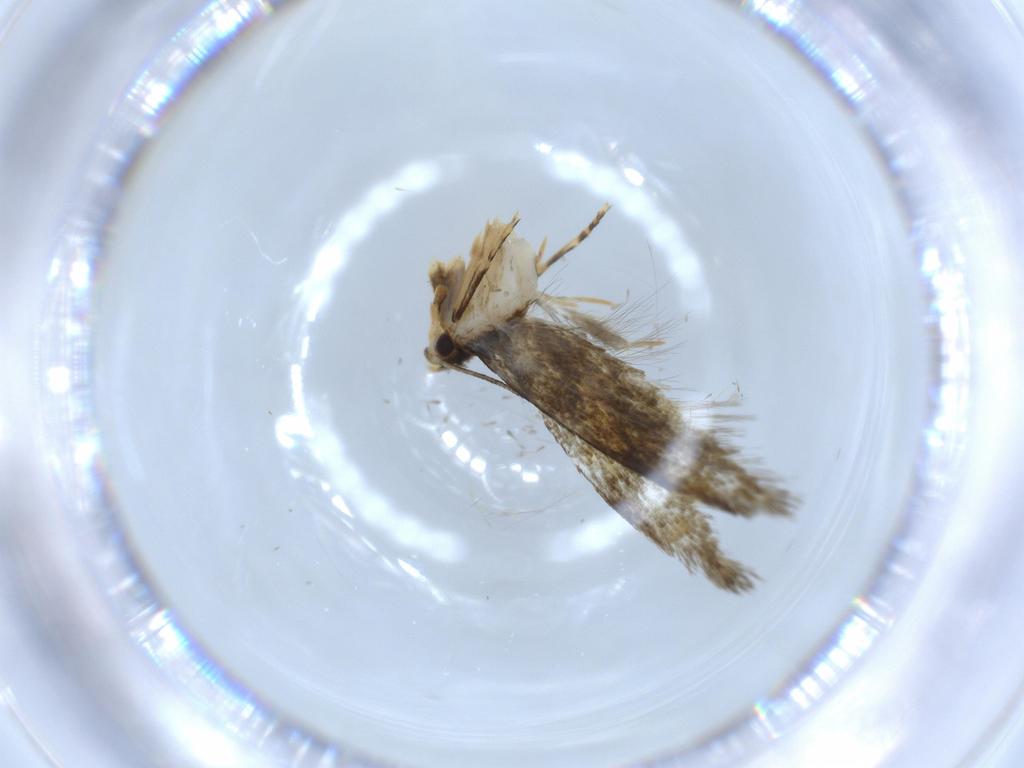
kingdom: Animalia
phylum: Arthropoda
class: Insecta
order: Lepidoptera
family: Tineidae
